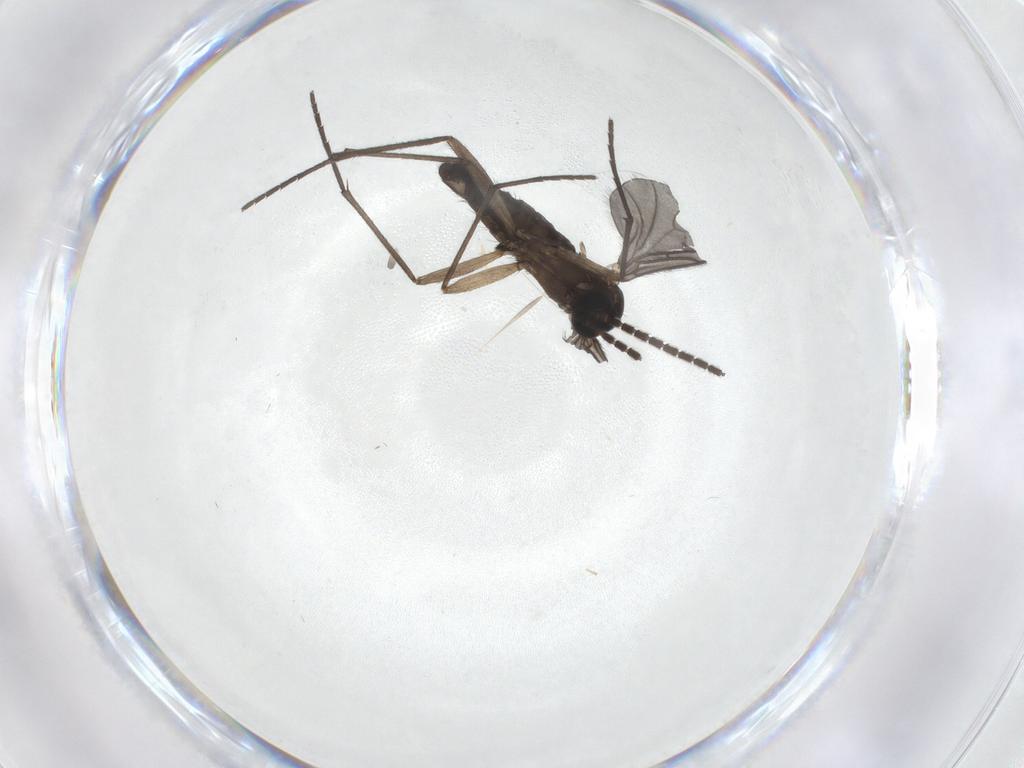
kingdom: Animalia
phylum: Arthropoda
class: Insecta
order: Diptera
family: Sciaridae
